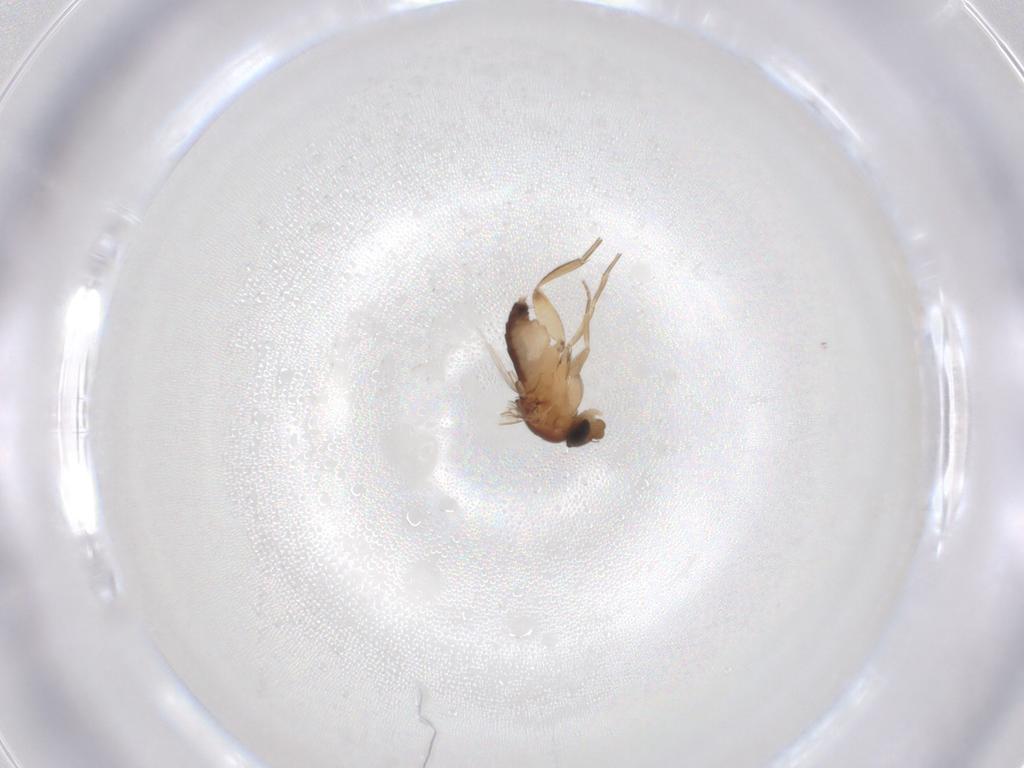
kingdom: Animalia
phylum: Arthropoda
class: Insecta
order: Diptera
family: Phoridae
